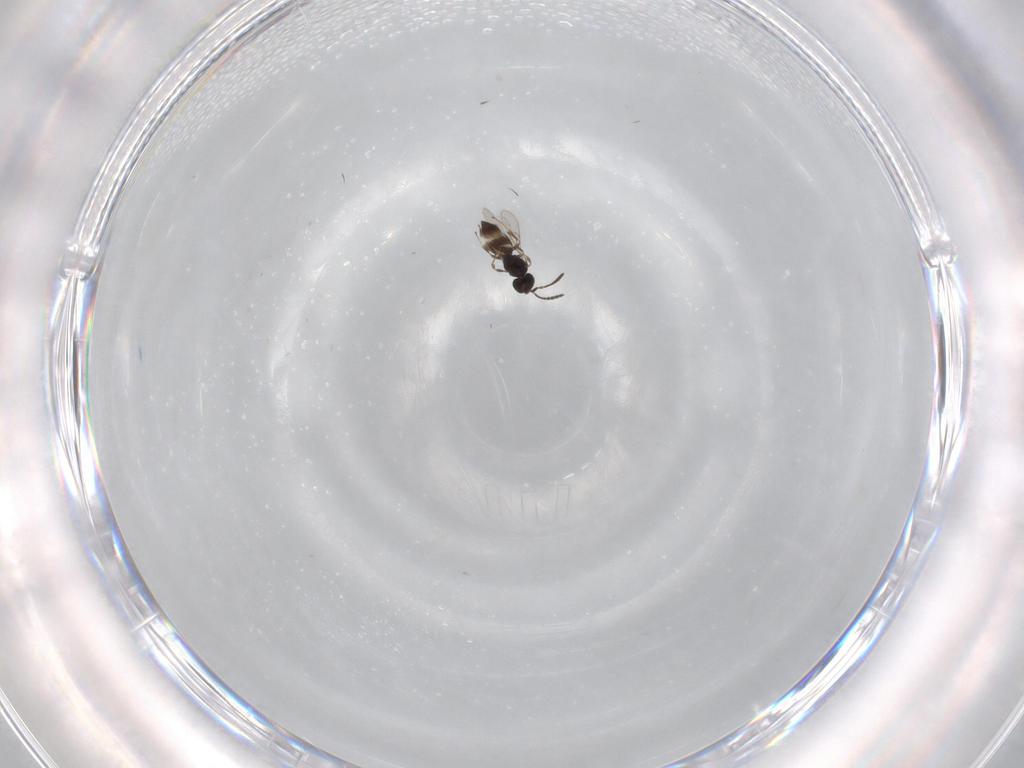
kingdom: Animalia
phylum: Arthropoda
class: Insecta
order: Hymenoptera
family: Scelionidae
